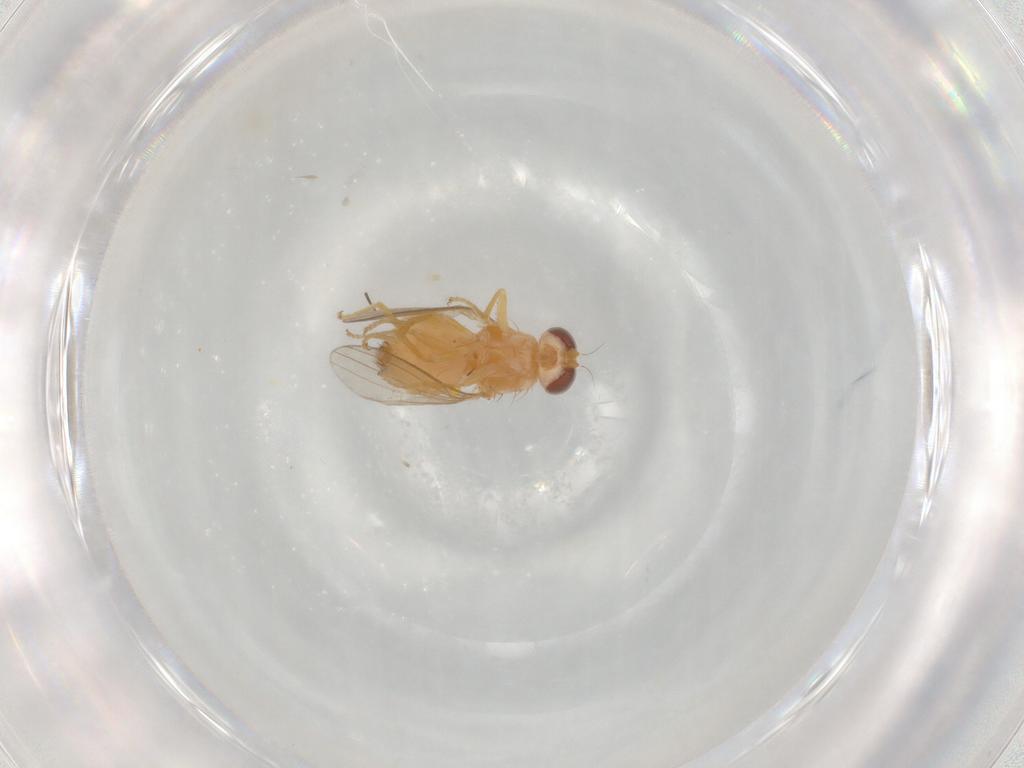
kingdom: Animalia
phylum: Arthropoda
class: Insecta
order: Diptera
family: Chyromyidae
